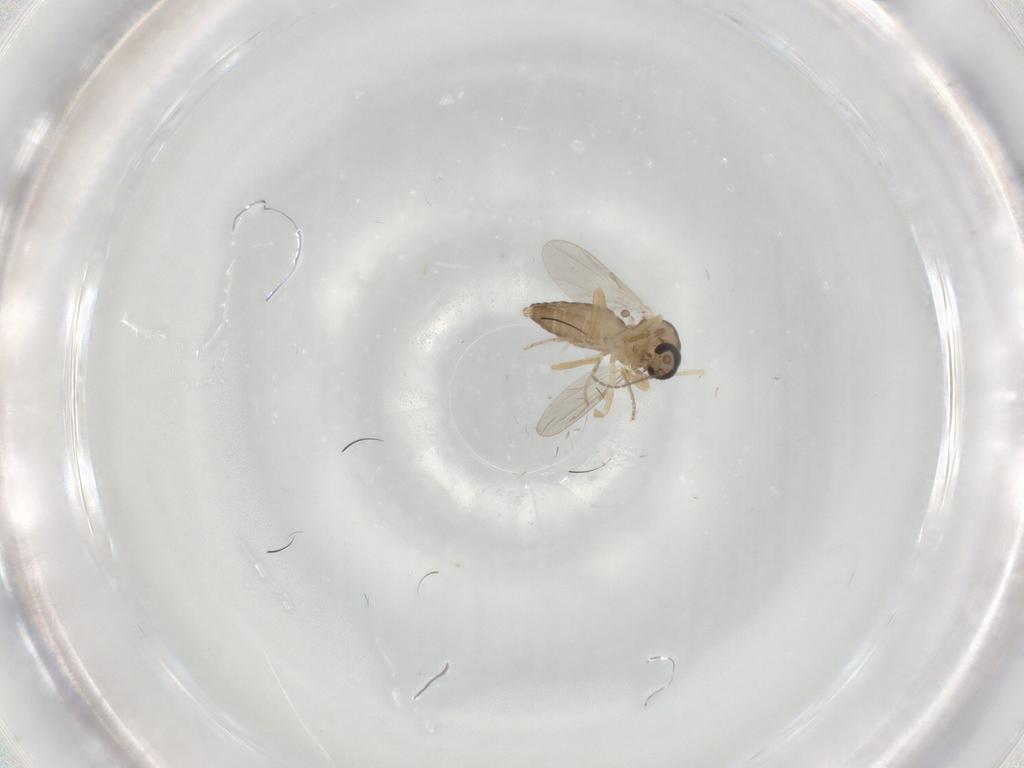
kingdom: Animalia
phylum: Arthropoda
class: Insecta
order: Diptera
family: Ceratopogonidae
